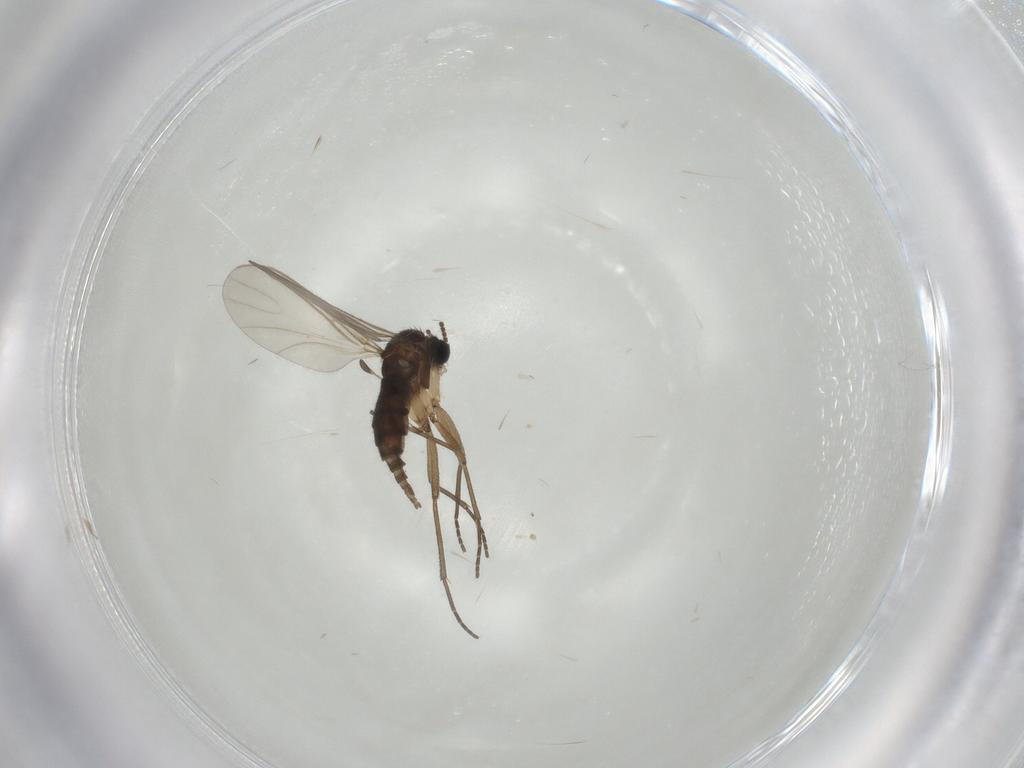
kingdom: Animalia
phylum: Arthropoda
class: Collembola
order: Entomobryomorpha
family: Entomobryidae
